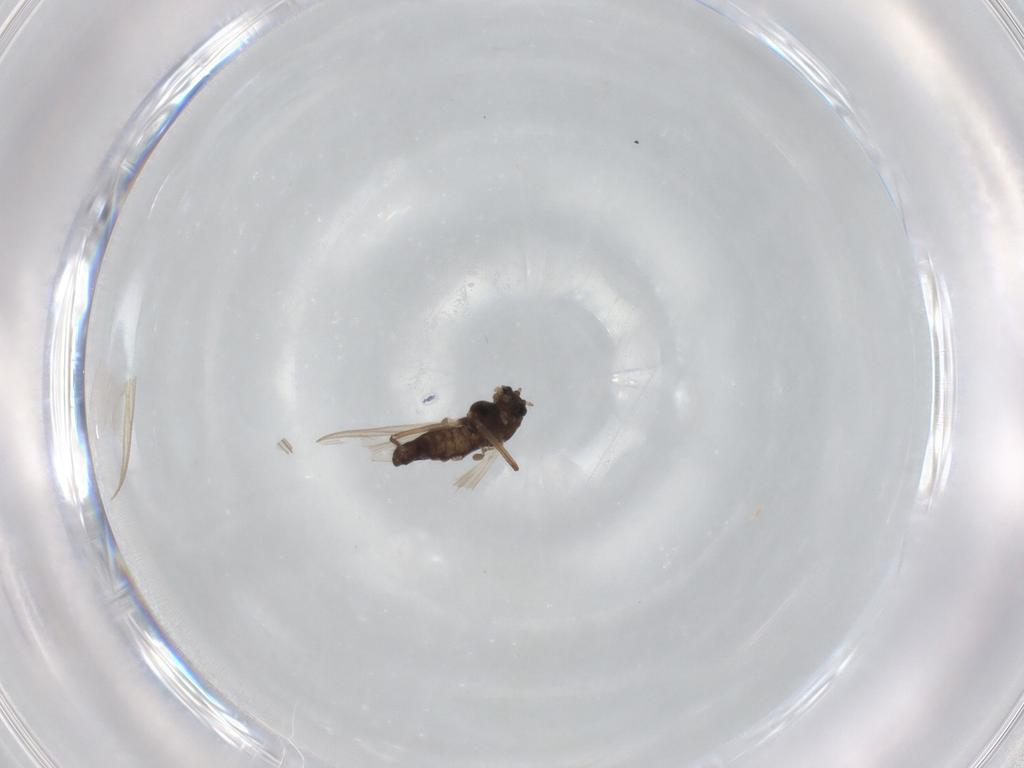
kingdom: Animalia
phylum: Arthropoda
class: Insecta
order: Diptera
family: Chironomidae
